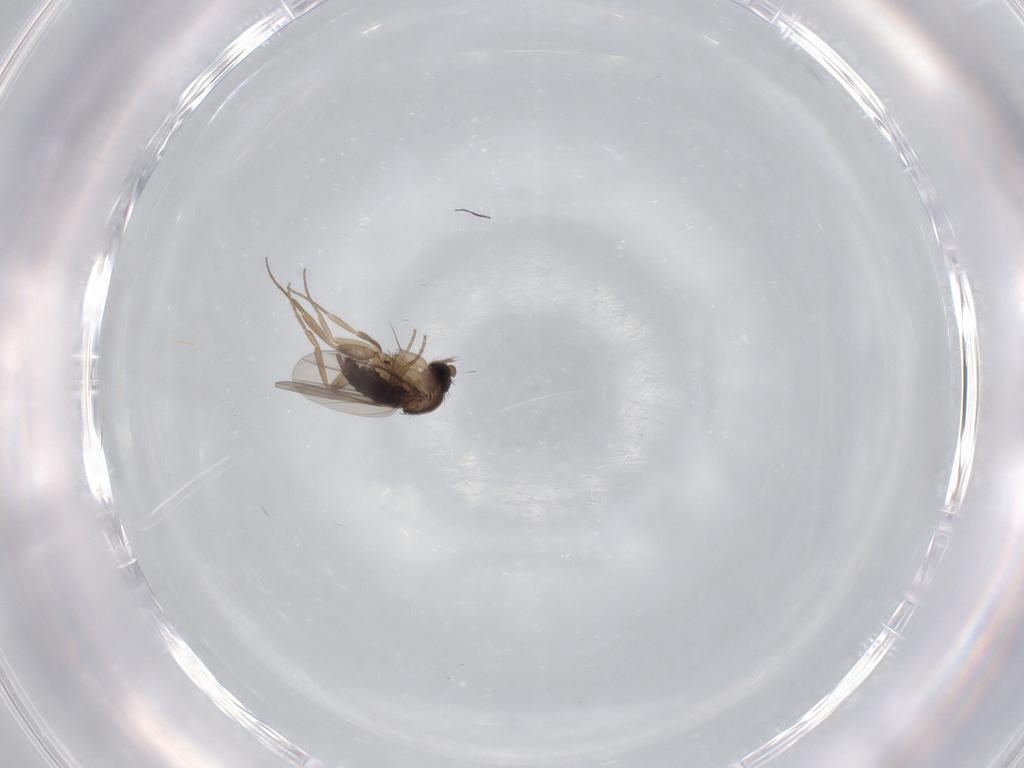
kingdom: Animalia
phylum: Arthropoda
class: Insecta
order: Diptera
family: Phoridae
